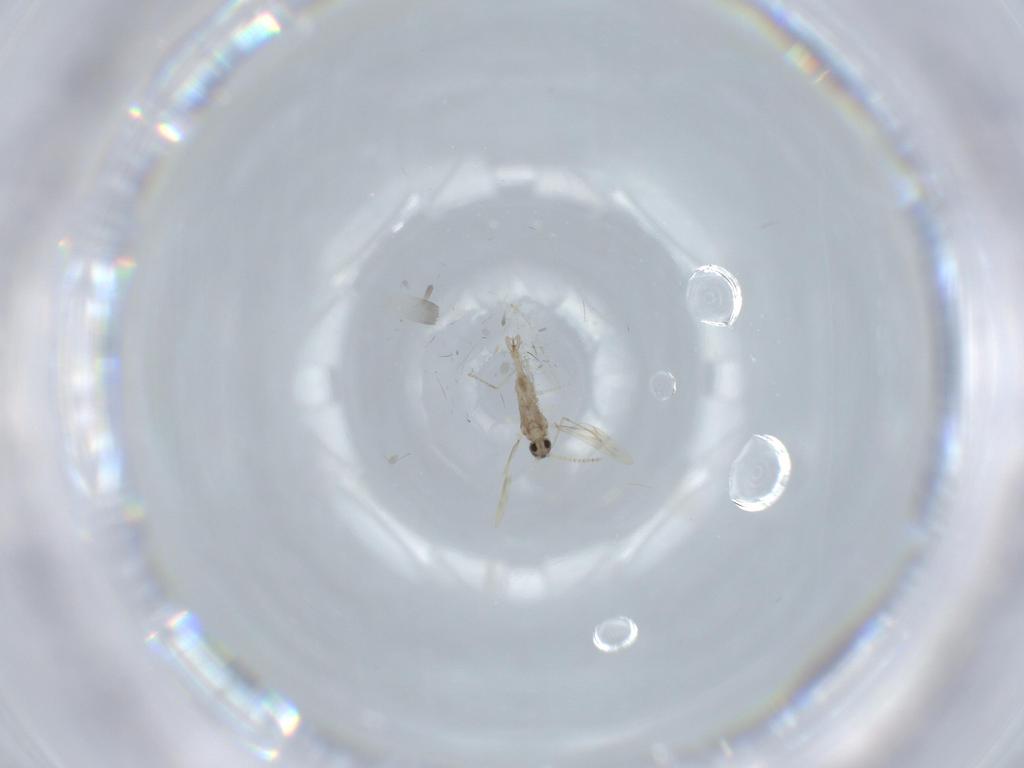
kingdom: Animalia
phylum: Arthropoda
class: Insecta
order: Diptera
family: Cecidomyiidae
